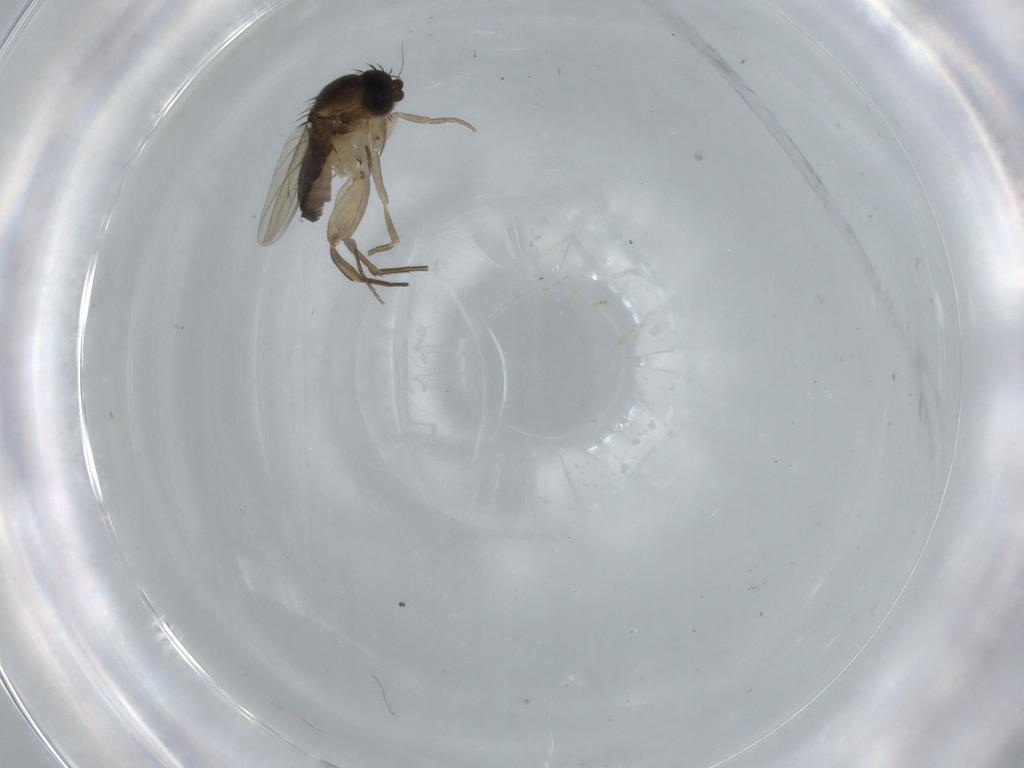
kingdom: Animalia
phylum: Arthropoda
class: Insecta
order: Diptera
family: Phoridae
